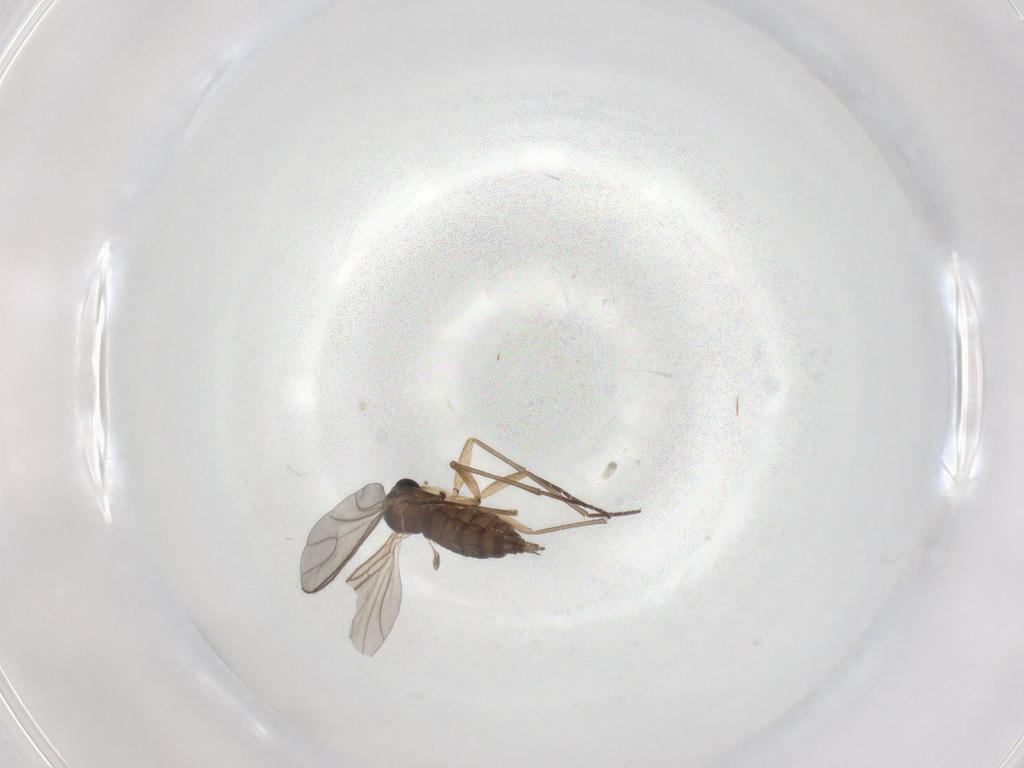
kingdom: Animalia
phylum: Arthropoda
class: Insecta
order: Diptera
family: Sciaridae
